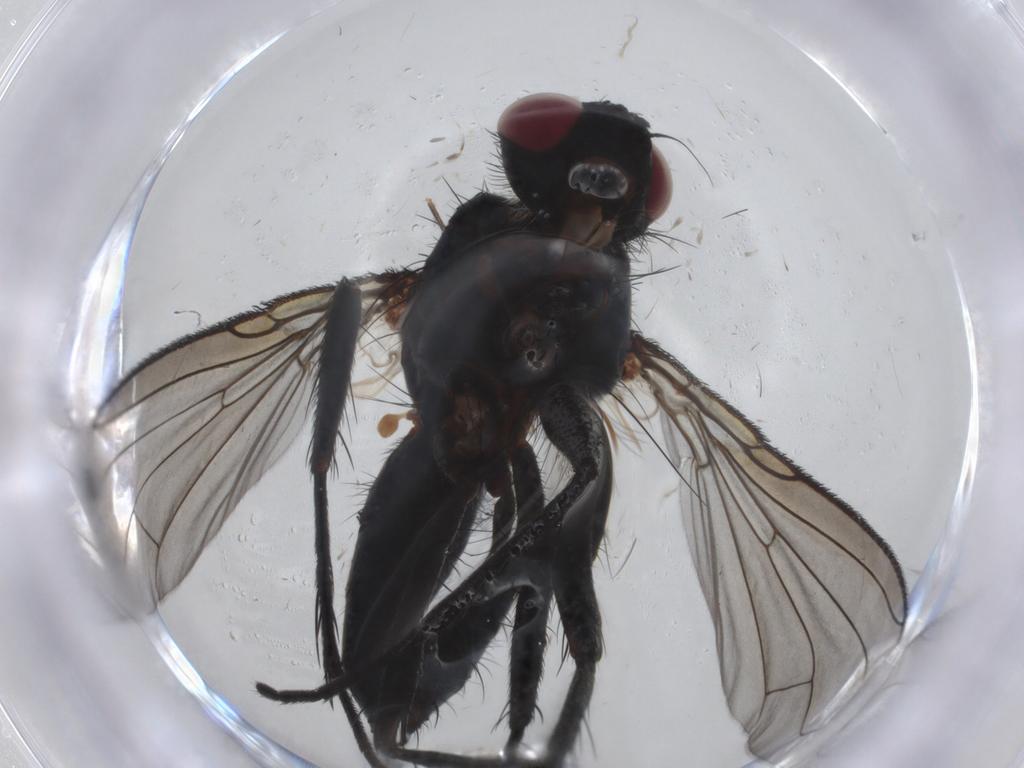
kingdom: Animalia
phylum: Arthropoda
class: Insecta
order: Diptera
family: Tachinidae
